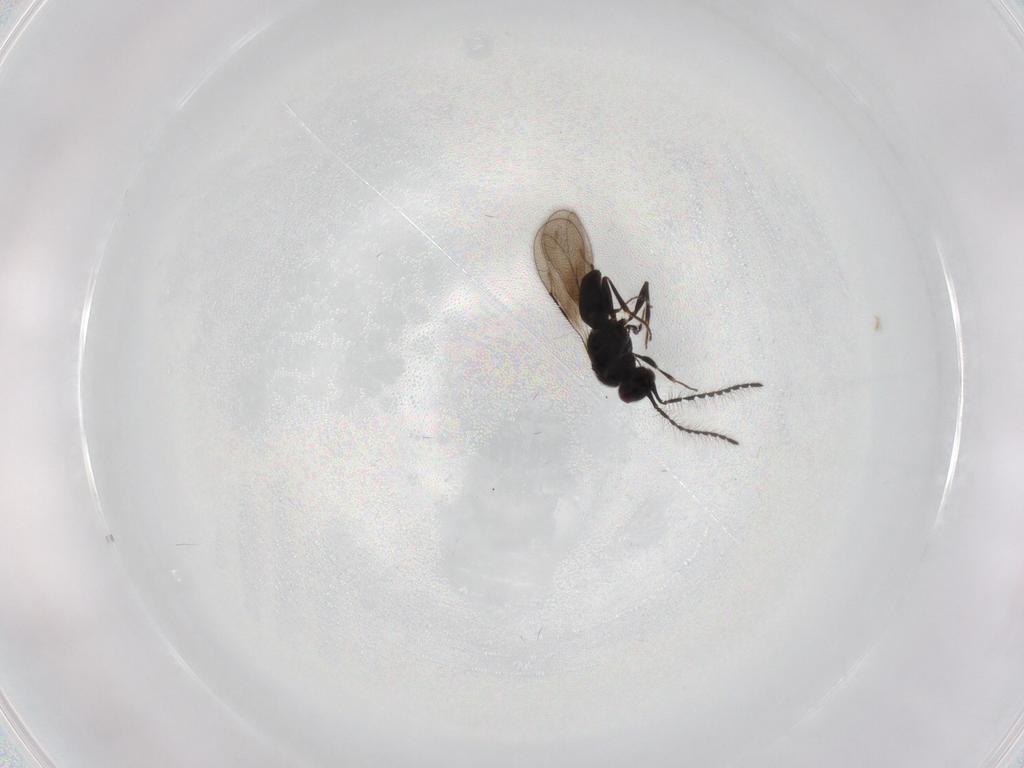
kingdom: Animalia
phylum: Arthropoda
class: Insecta
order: Hymenoptera
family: Diapriidae
